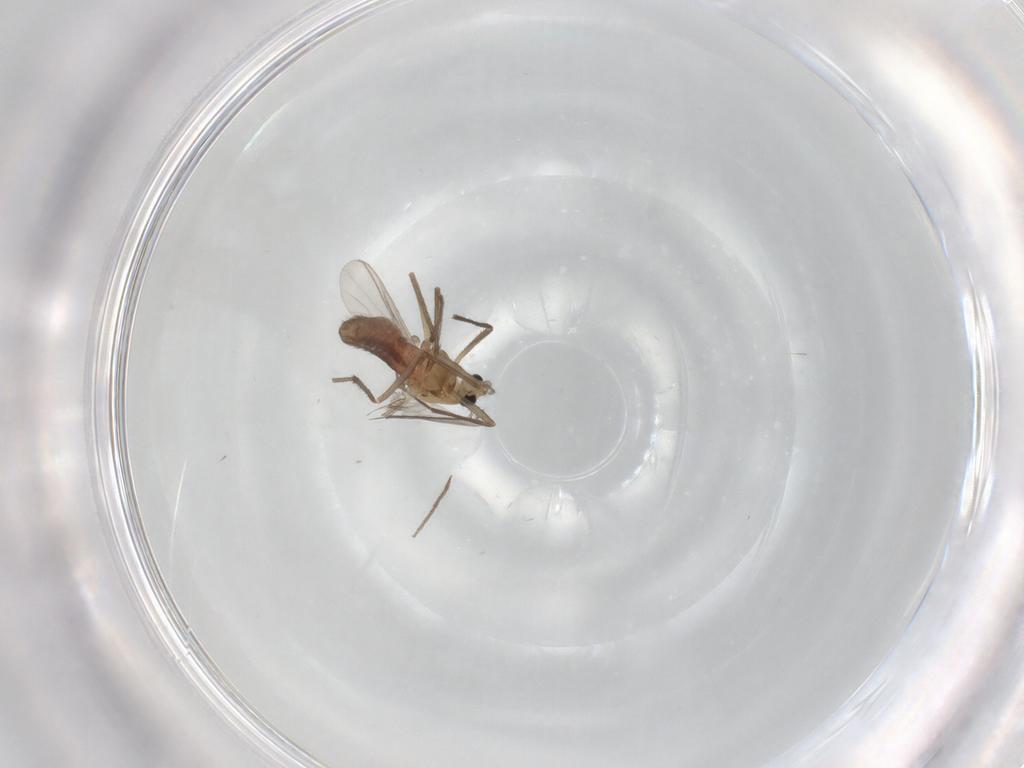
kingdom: Animalia
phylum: Arthropoda
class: Insecta
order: Diptera
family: Chironomidae
